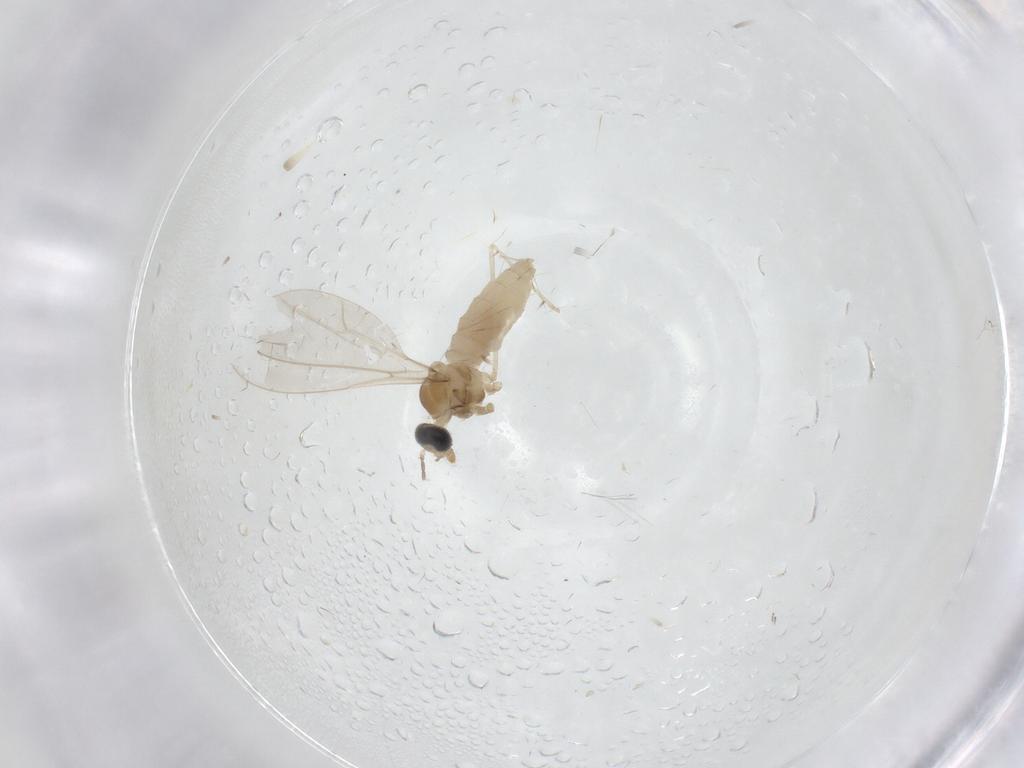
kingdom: Animalia
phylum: Arthropoda
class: Insecta
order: Diptera
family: Cecidomyiidae
